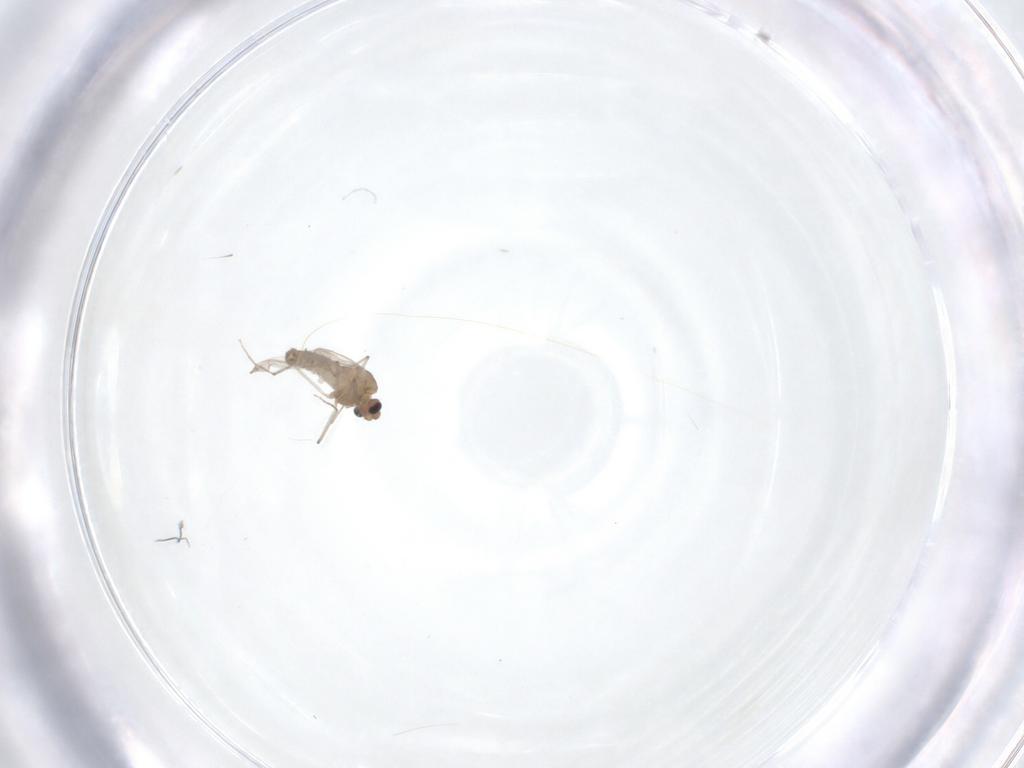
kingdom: Animalia
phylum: Arthropoda
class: Insecta
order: Diptera
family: Chironomidae
